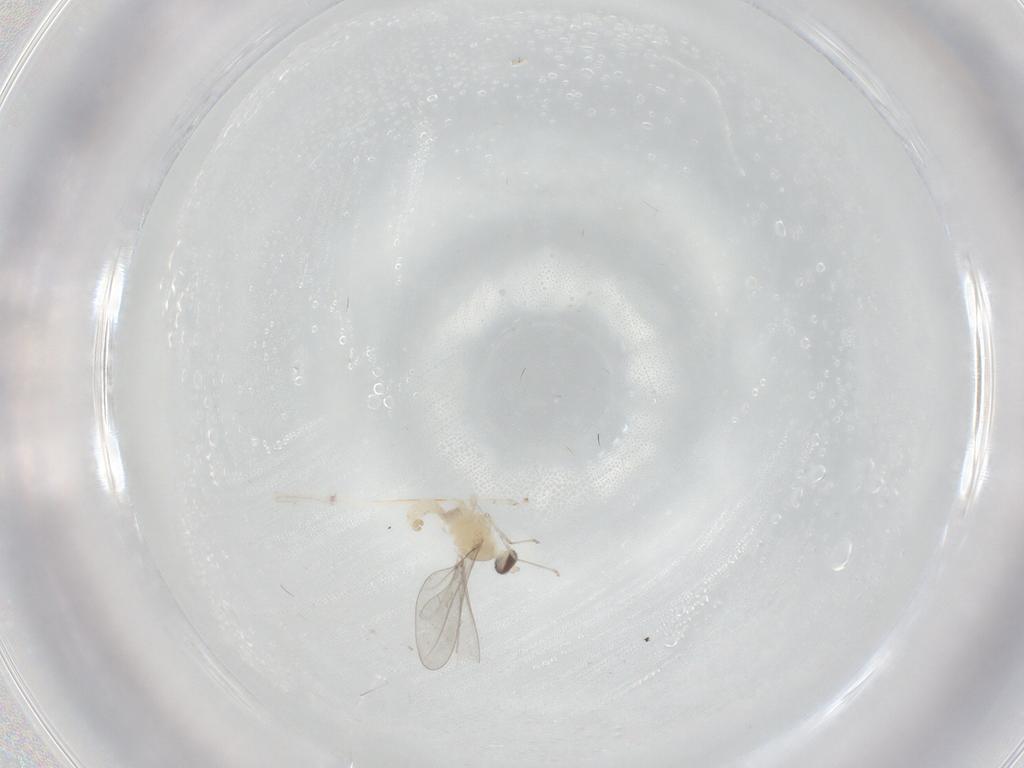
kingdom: Animalia
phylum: Arthropoda
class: Insecta
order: Diptera
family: Cecidomyiidae
